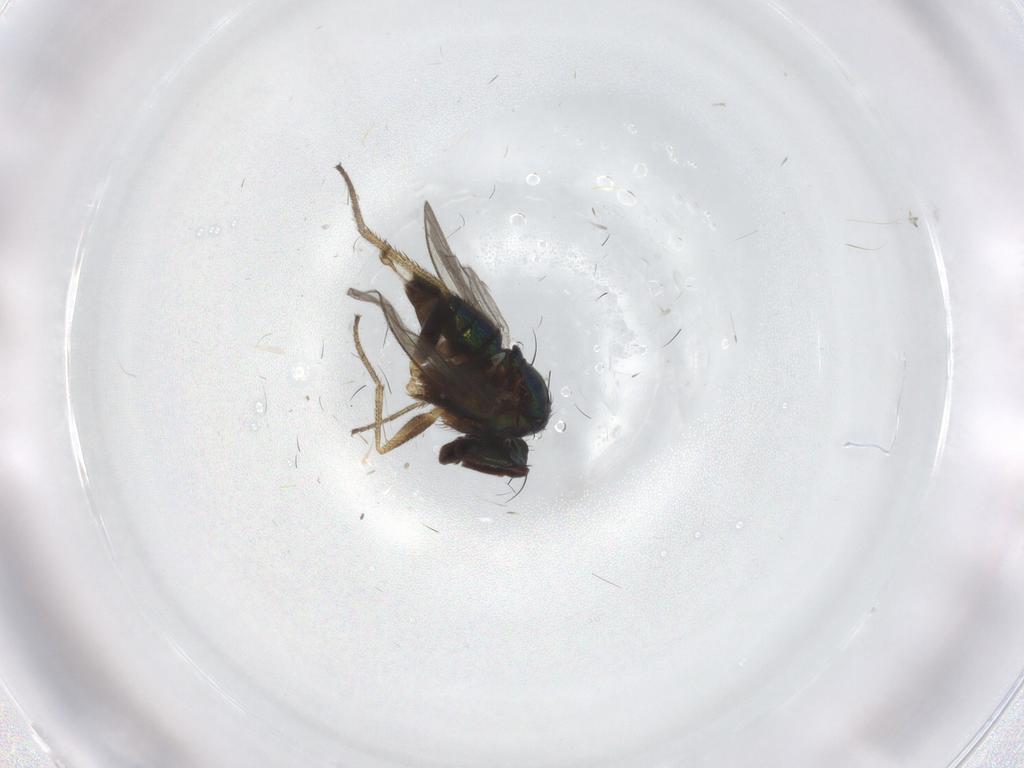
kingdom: Animalia
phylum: Arthropoda
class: Insecta
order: Diptera
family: Dolichopodidae
